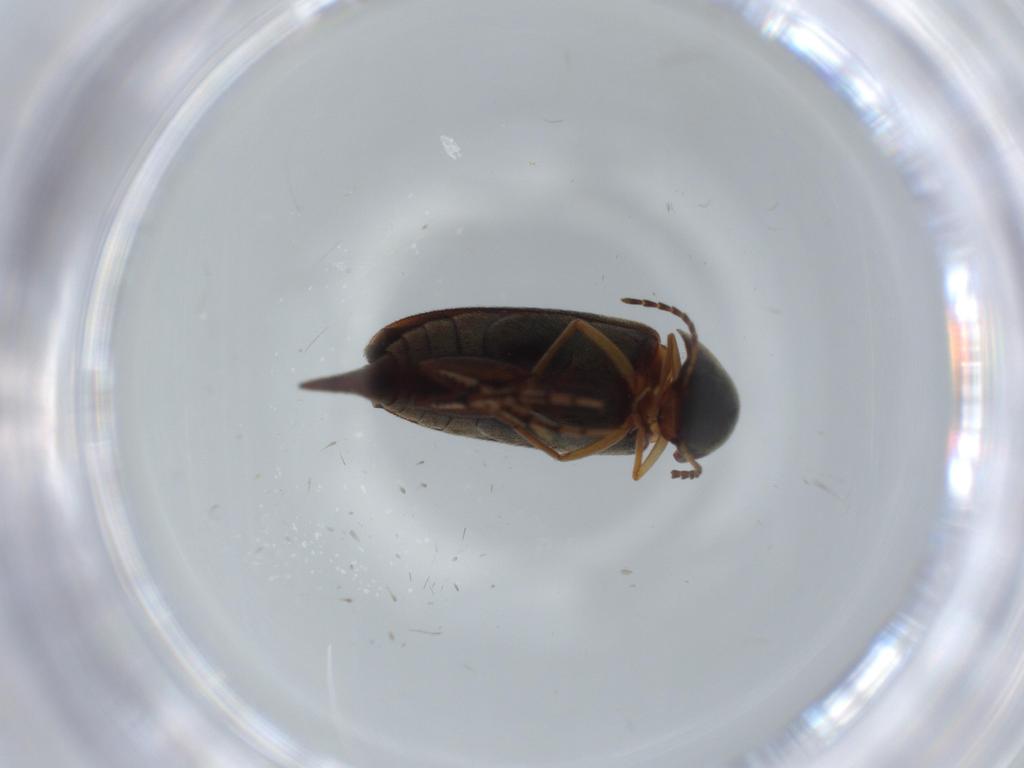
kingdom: Animalia
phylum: Arthropoda
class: Insecta
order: Coleoptera
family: Mordellidae
